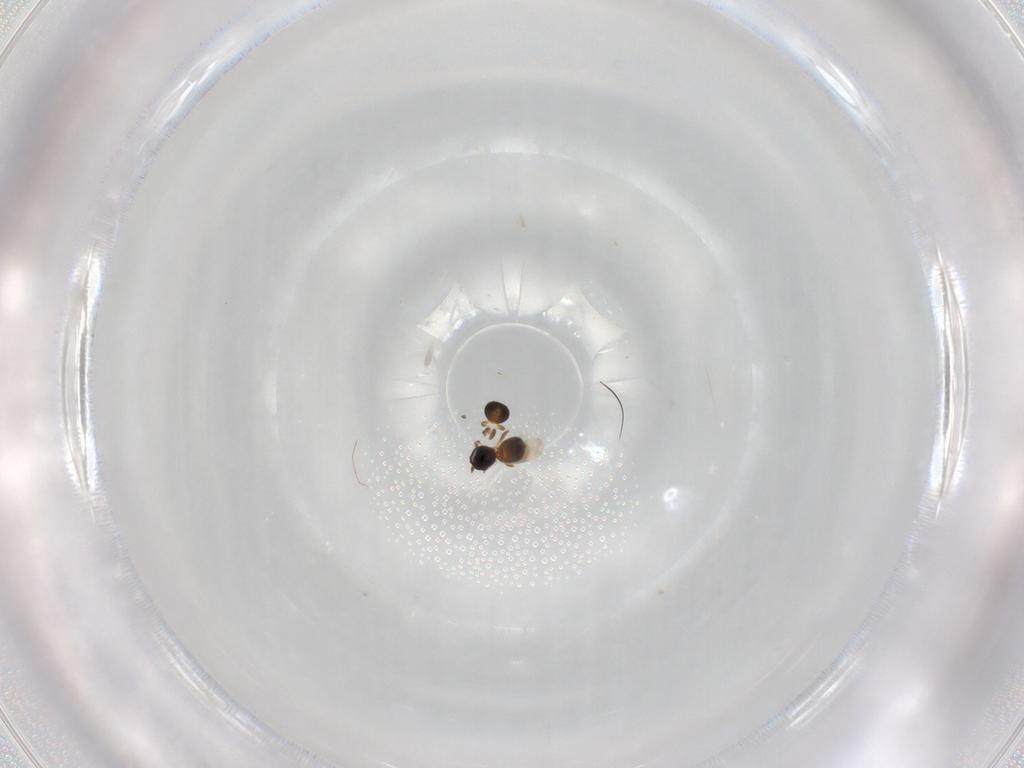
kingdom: Animalia
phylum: Arthropoda
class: Insecta
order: Hymenoptera
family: Platygastridae
